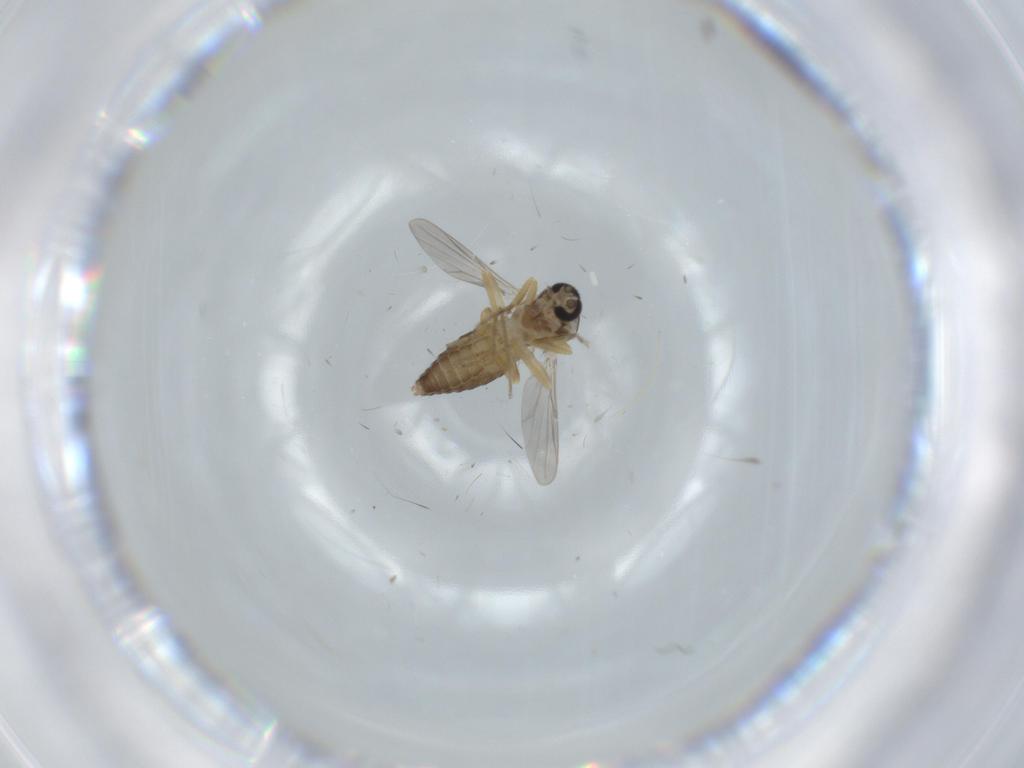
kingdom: Animalia
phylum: Arthropoda
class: Insecta
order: Diptera
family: Ceratopogonidae
